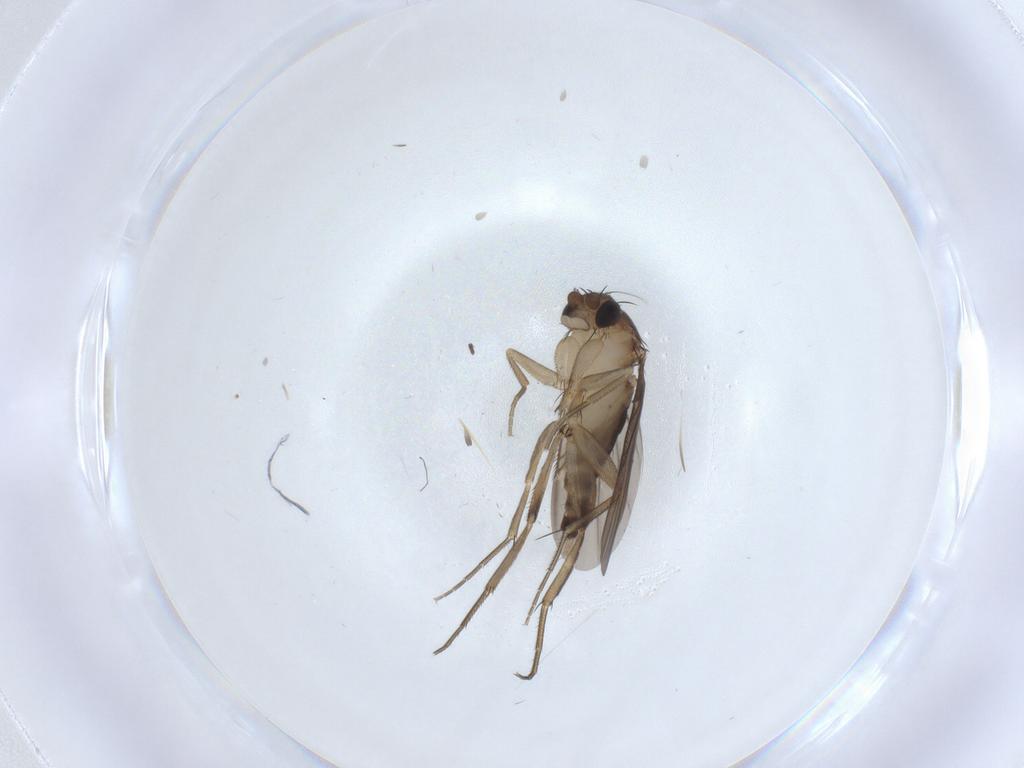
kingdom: Animalia
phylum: Arthropoda
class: Insecta
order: Diptera
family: Phoridae
